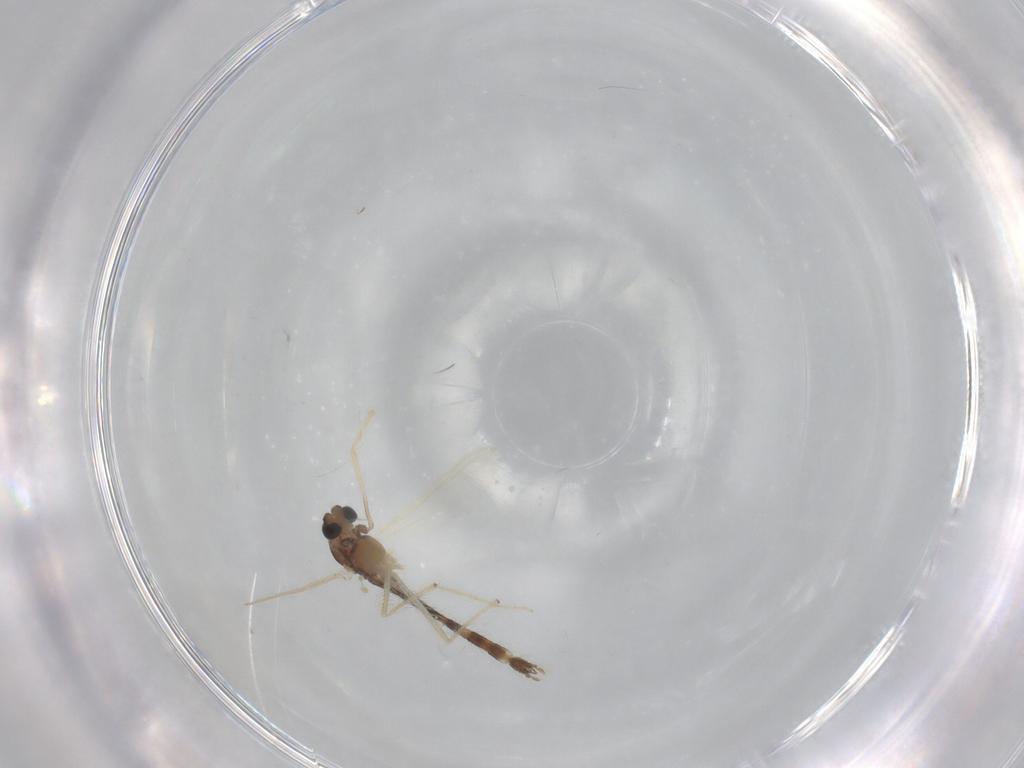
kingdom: Animalia
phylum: Arthropoda
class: Insecta
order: Diptera
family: Chironomidae
